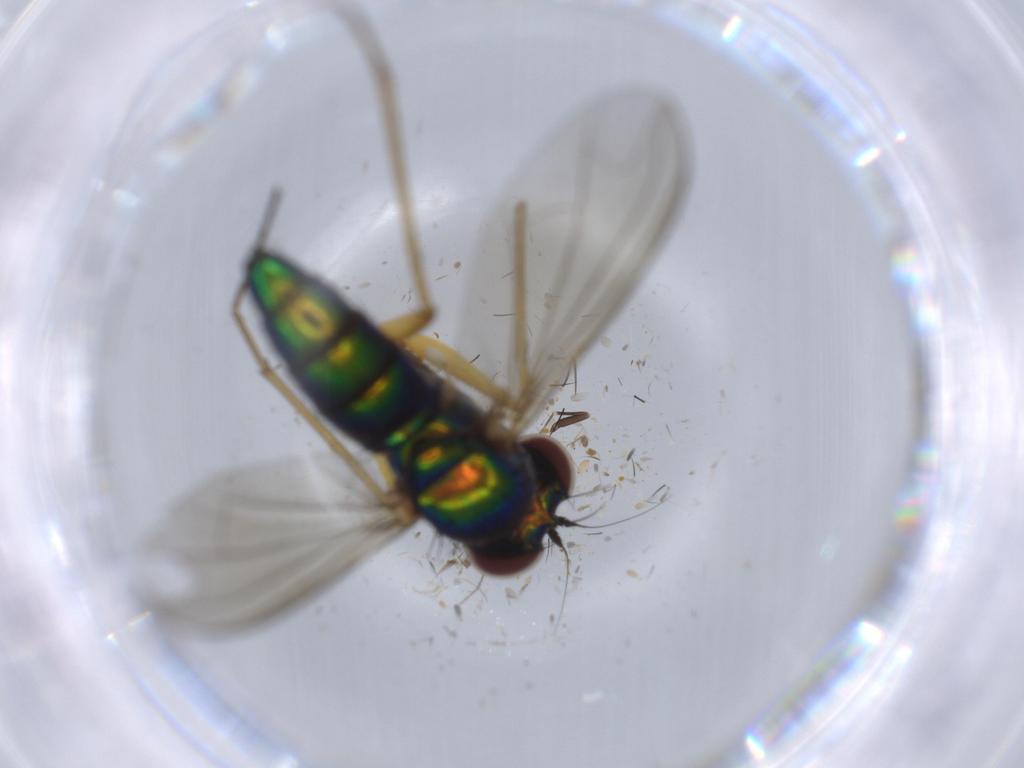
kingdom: Animalia
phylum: Arthropoda
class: Insecta
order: Diptera
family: Dolichopodidae
